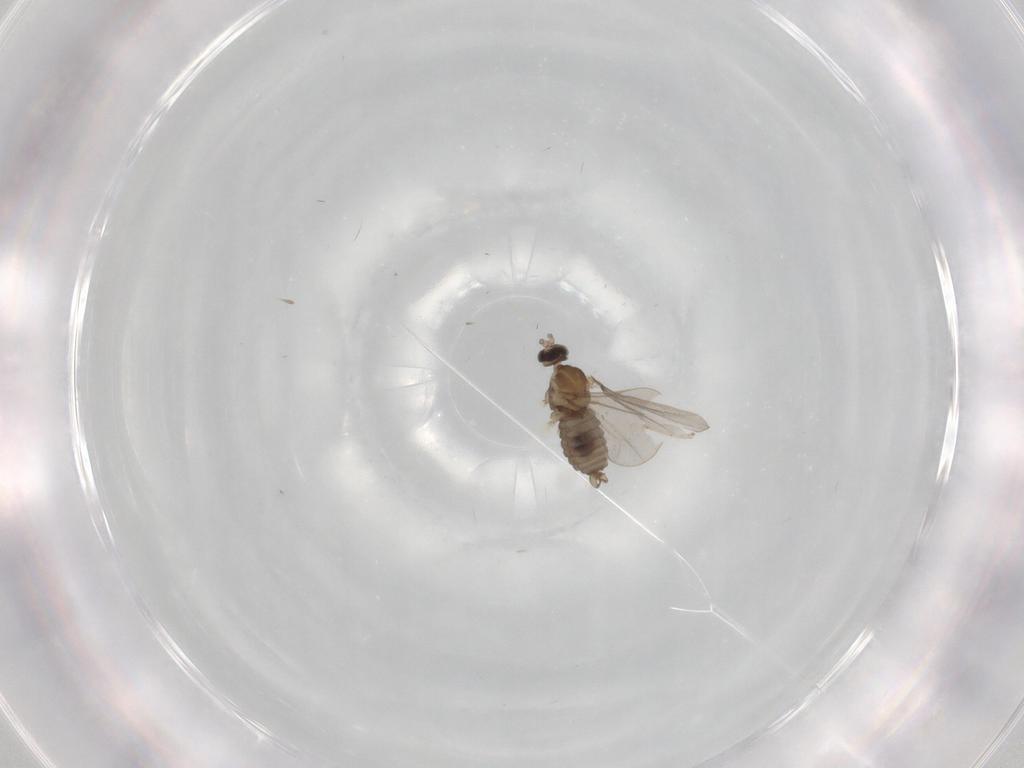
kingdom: Animalia
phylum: Arthropoda
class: Insecta
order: Diptera
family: Cecidomyiidae
